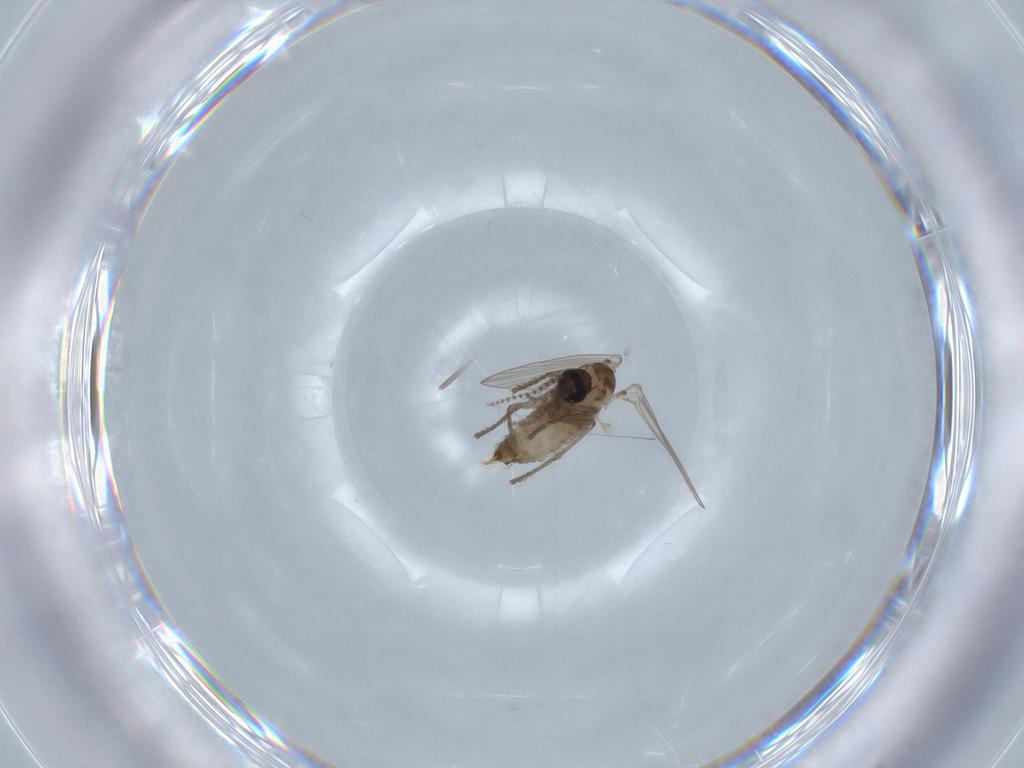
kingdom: Animalia
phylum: Arthropoda
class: Insecta
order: Diptera
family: Psychodidae
